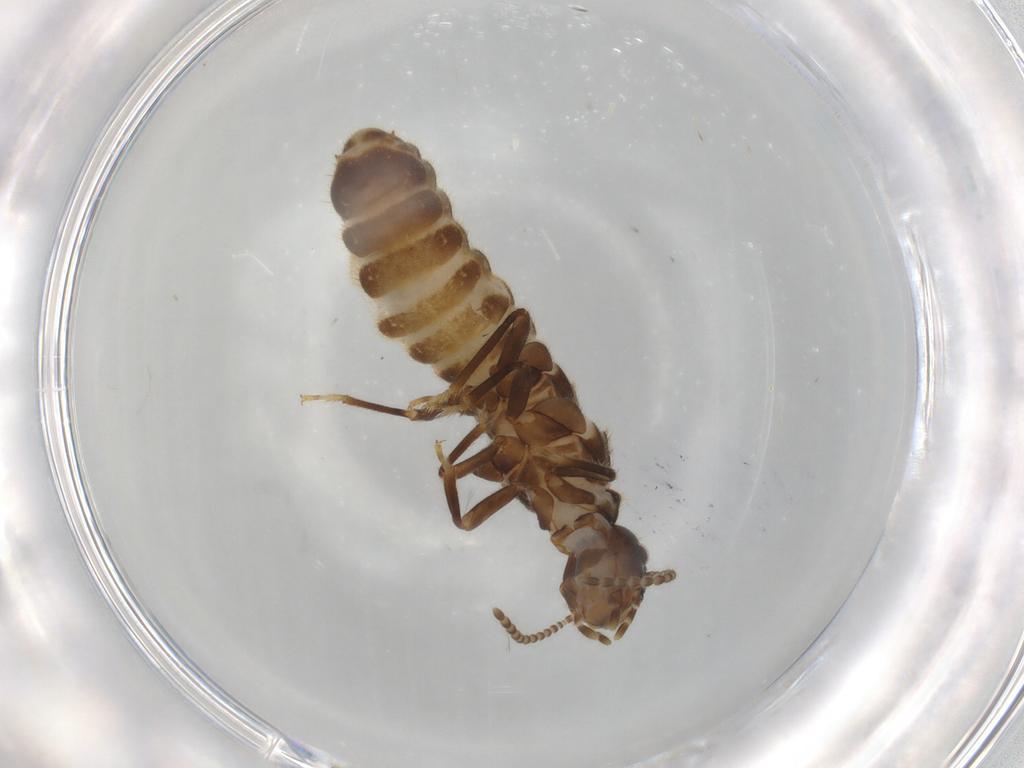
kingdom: Animalia
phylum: Arthropoda
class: Insecta
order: Blattodea
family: Termitidae
